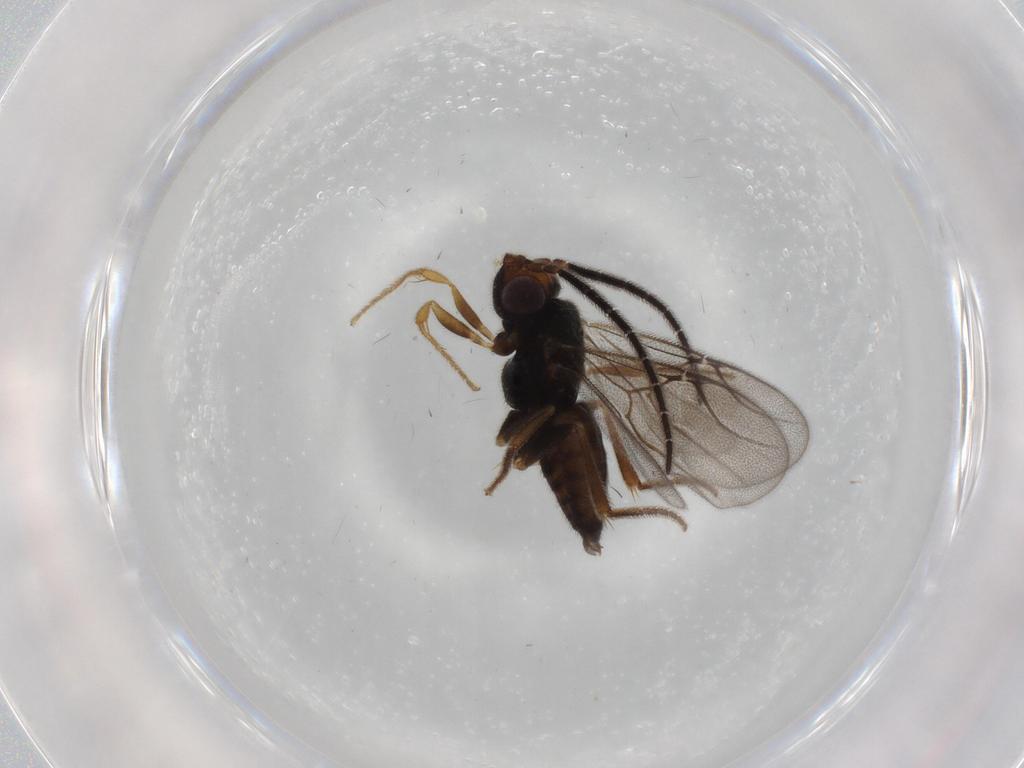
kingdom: Animalia
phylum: Arthropoda
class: Insecta
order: Hymenoptera
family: Dryinidae
